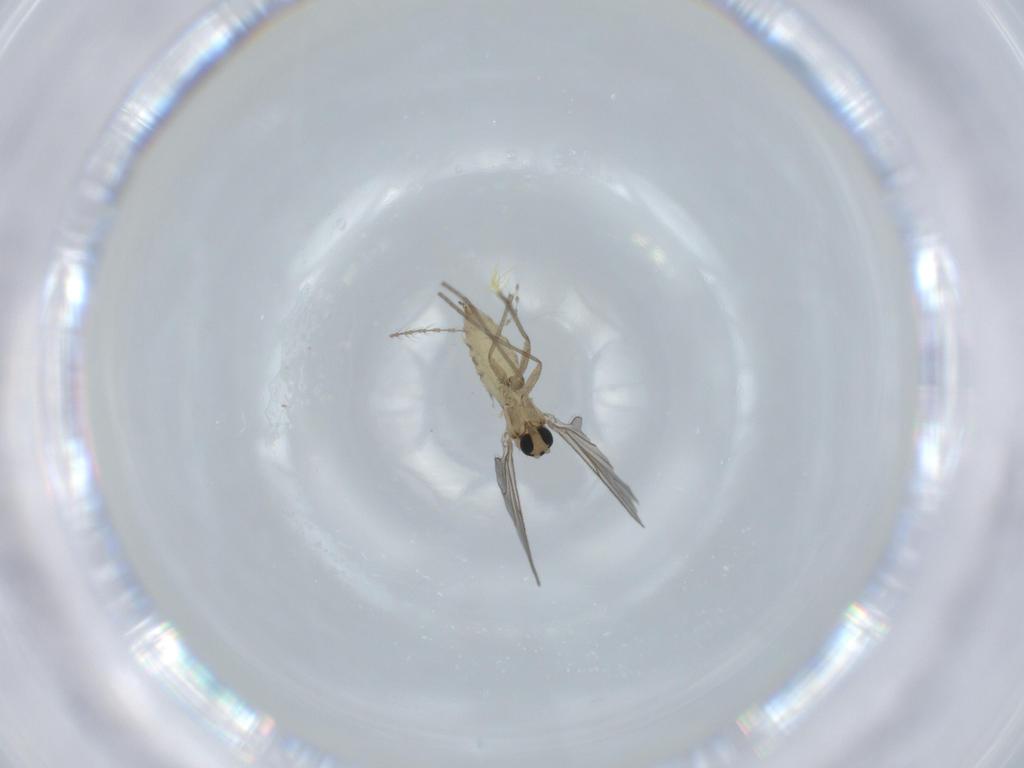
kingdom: Animalia
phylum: Arthropoda
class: Insecta
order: Diptera
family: Sciaridae
